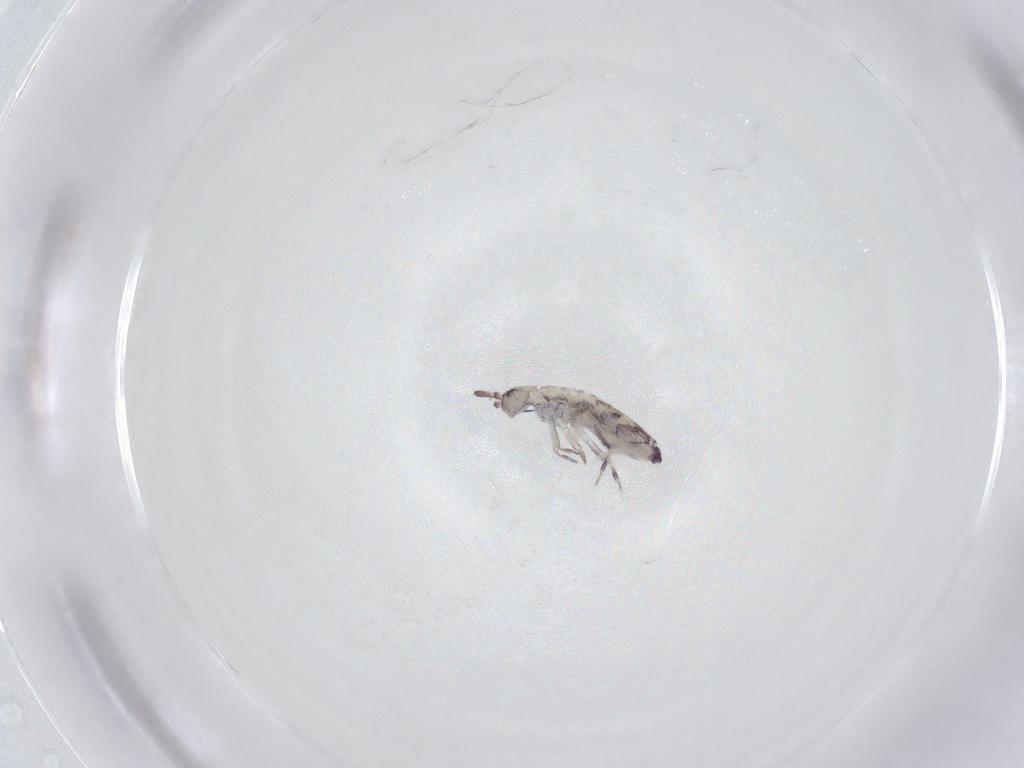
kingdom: Animalia
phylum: Arthropoda
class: Collembola
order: Entomobryomorpha
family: Entomobryidae
